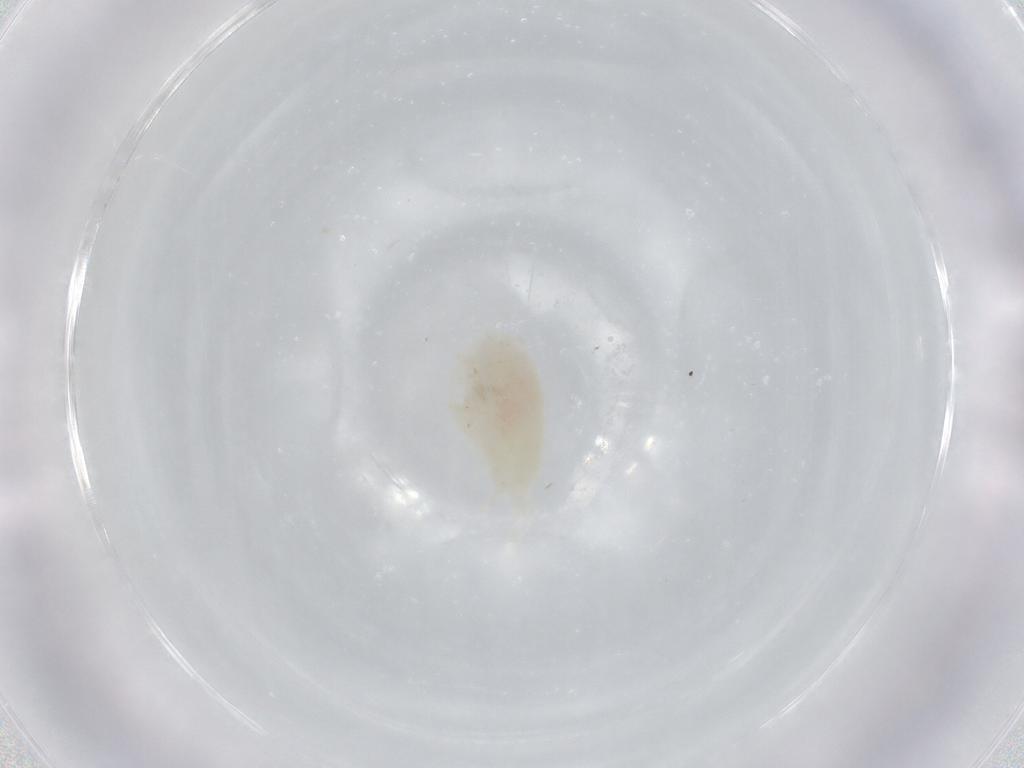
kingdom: Animalia
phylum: Arthropoda
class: Copepoda
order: Calanoida
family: Diaptomidae
